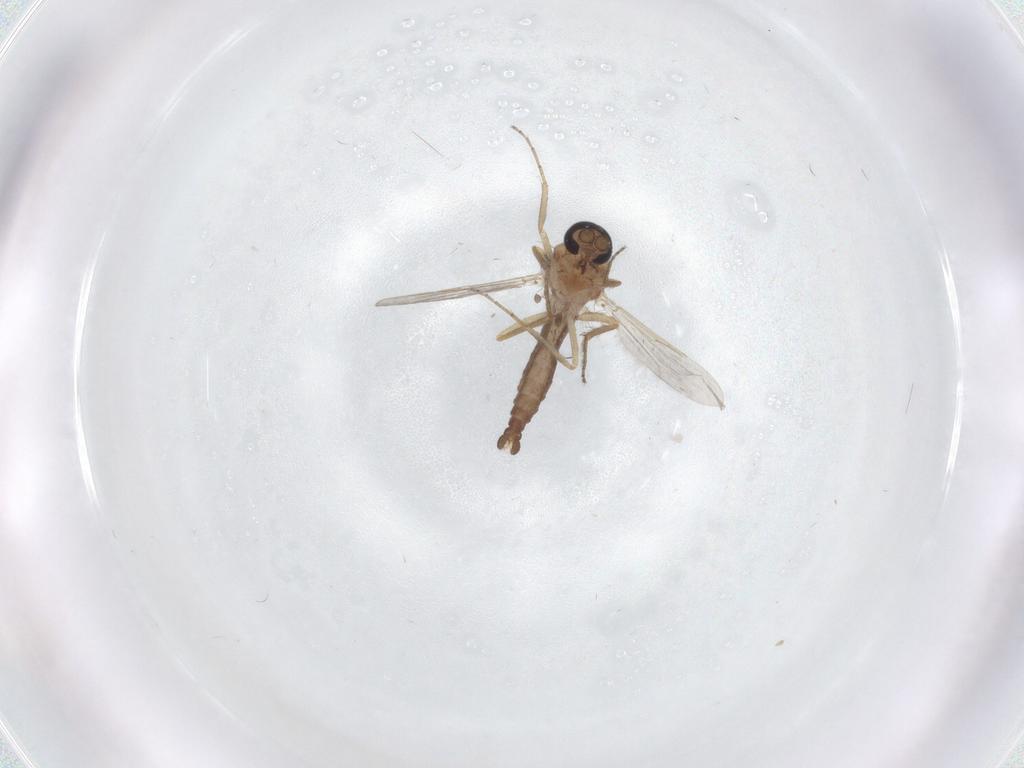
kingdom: Animalia
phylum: Arthropoda
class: Insecta
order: Diptera
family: Ceratopogonidae
